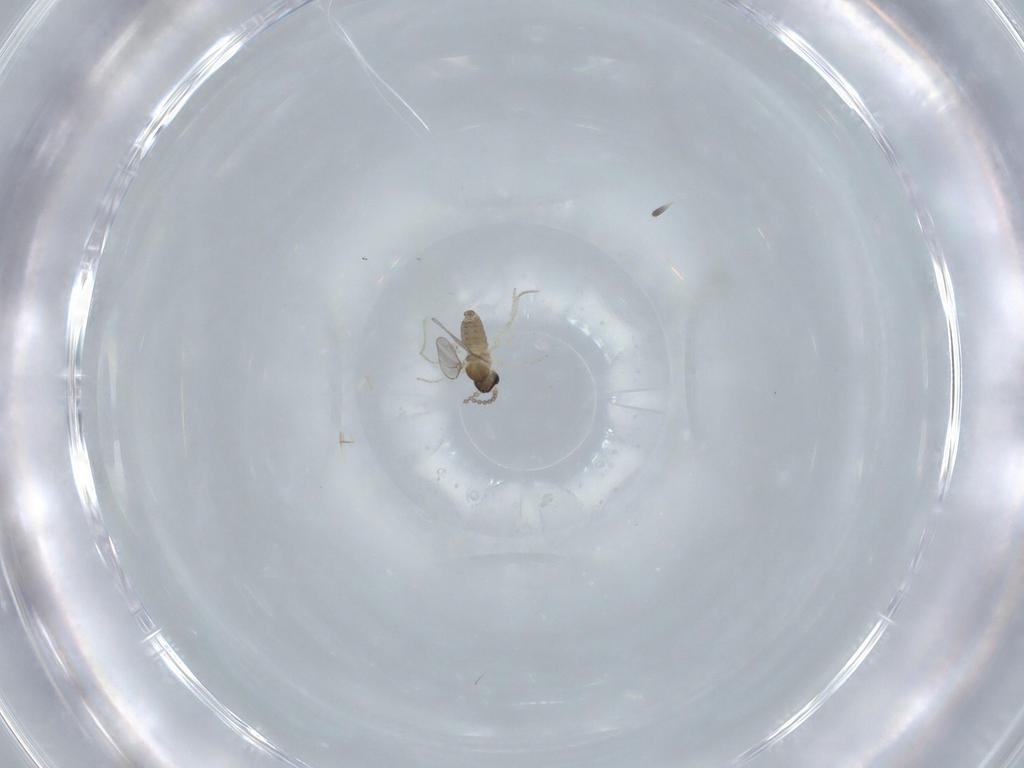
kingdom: Animalia
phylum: Arthropoda
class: Insecta
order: Diptera
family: Cecidomyiidae
